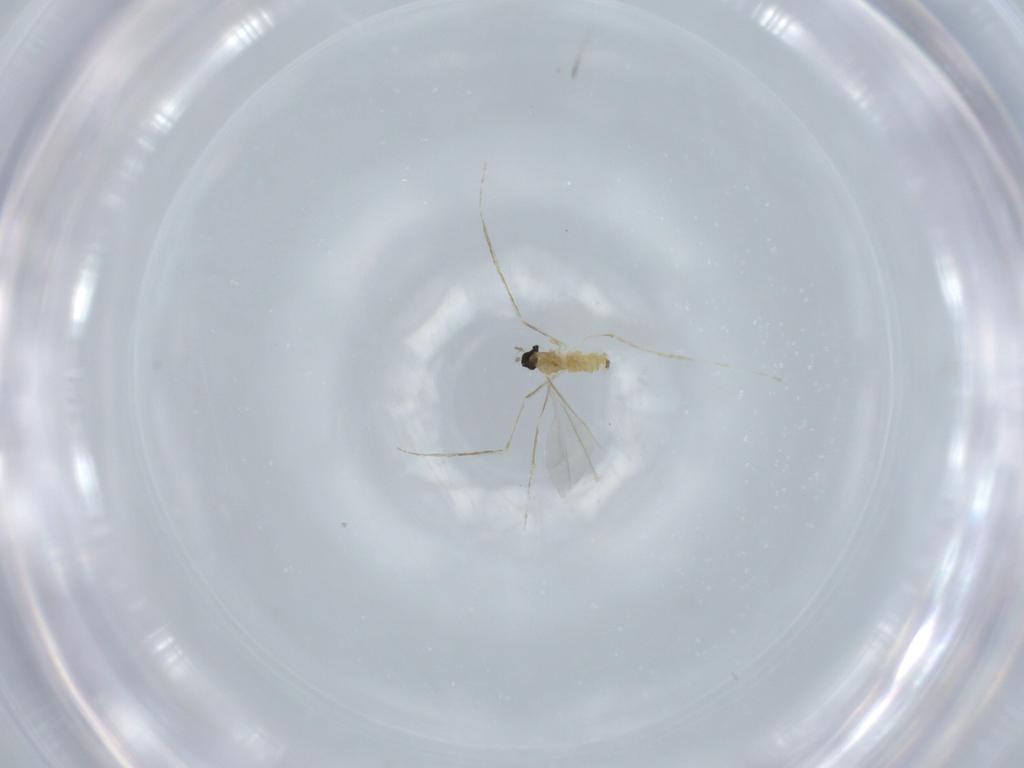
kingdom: Animalia
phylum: Arthropoda
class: Insecta
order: Diptera
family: Cecidomyiidae
